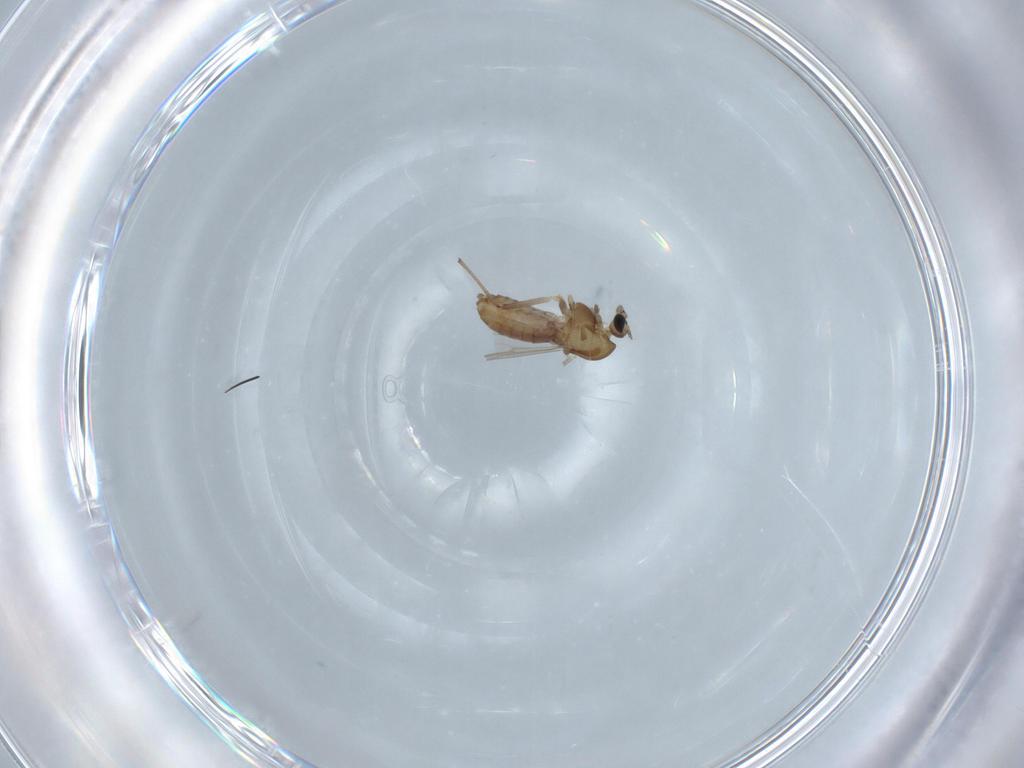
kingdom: Animalia
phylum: Arthropoda
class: Insecta
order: Diptera
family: Chironomidae
